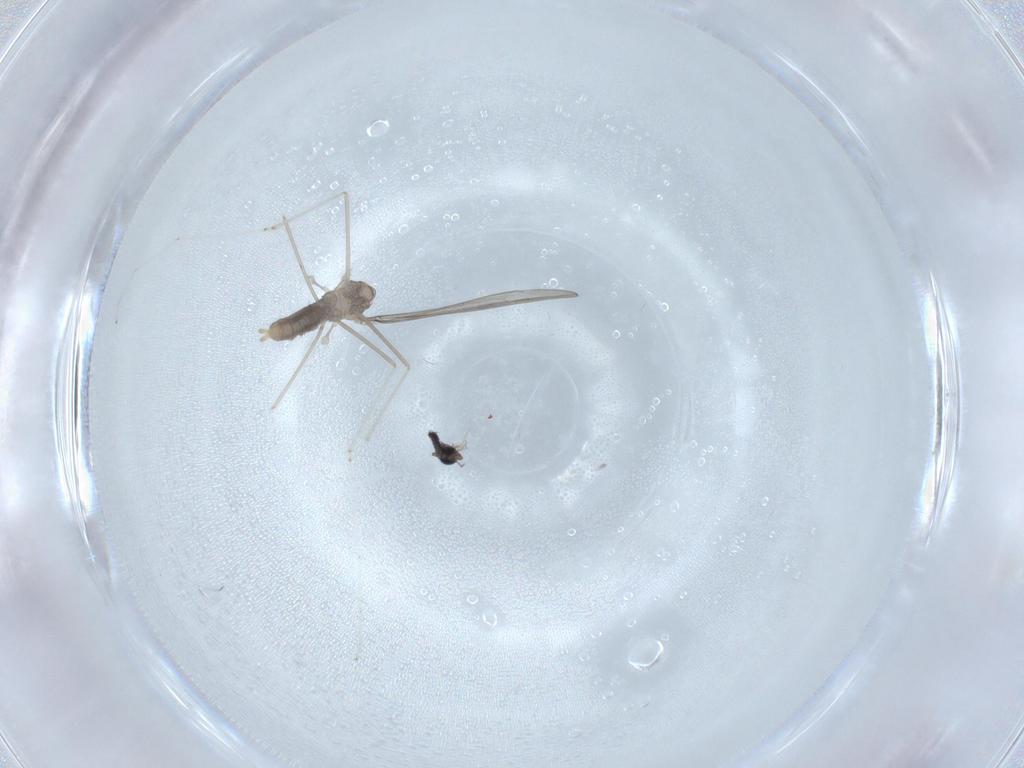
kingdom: Animalia
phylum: Arthropoda
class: Insecta
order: Diptera
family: Cecidomyiidae
